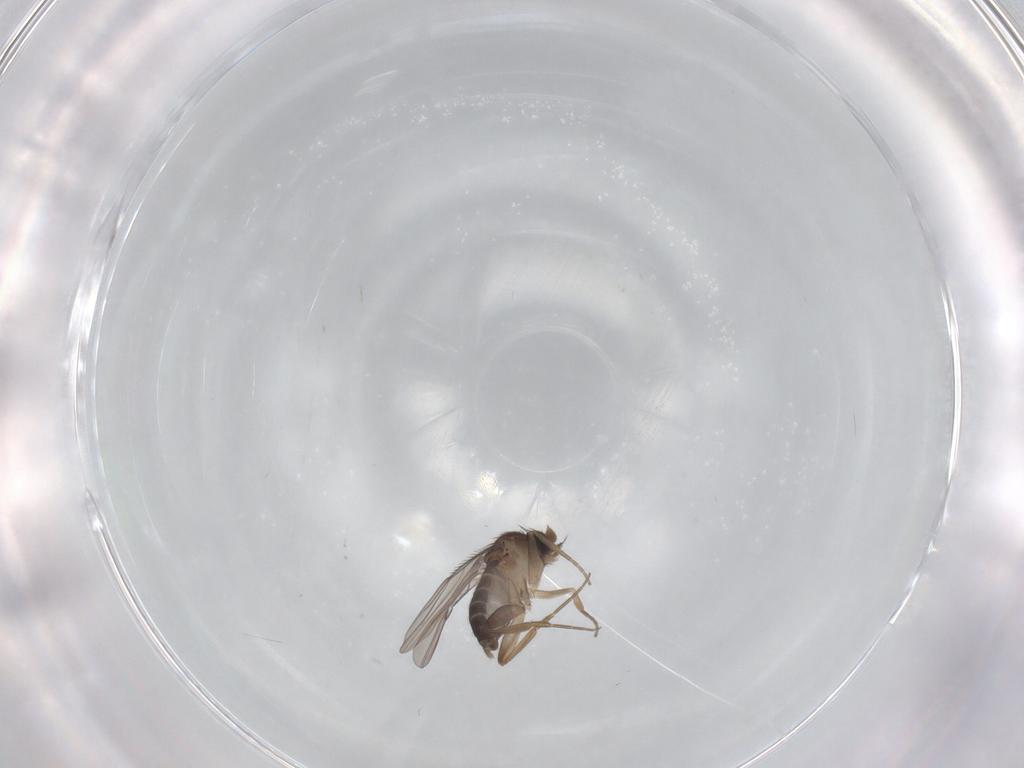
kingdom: Animalia
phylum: Arthropoda
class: Insecta
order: Diptera
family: Phoridae
